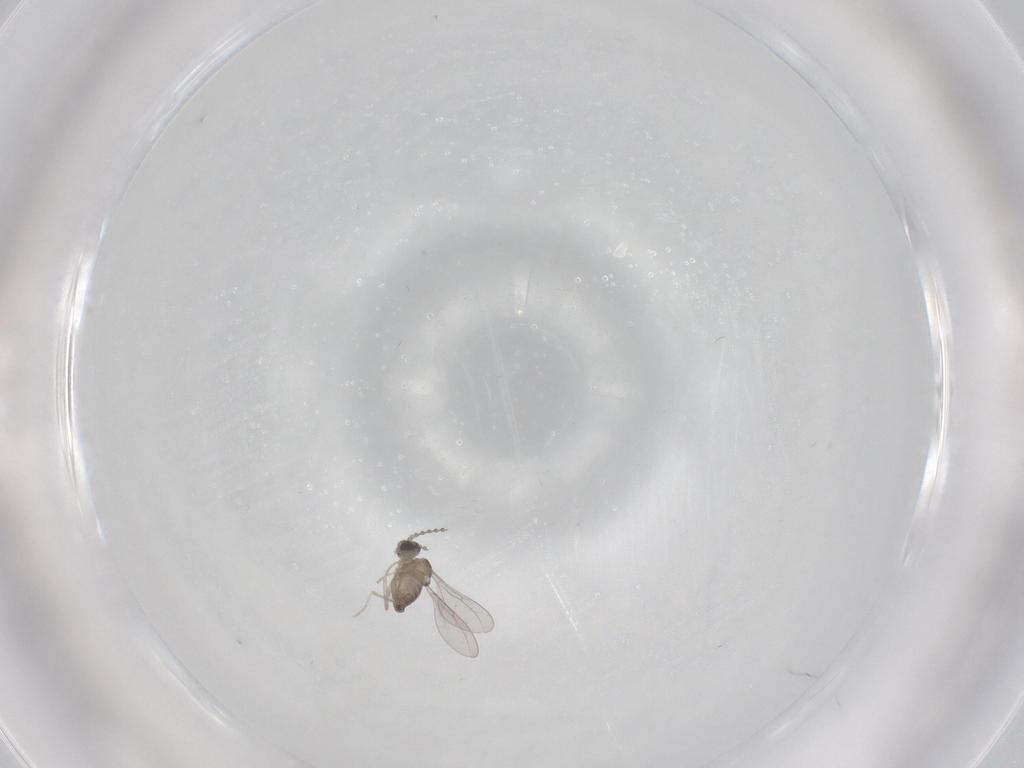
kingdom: Animalia
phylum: Arthropoda
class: Insecta
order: Diptera
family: Cecidomyiidae
